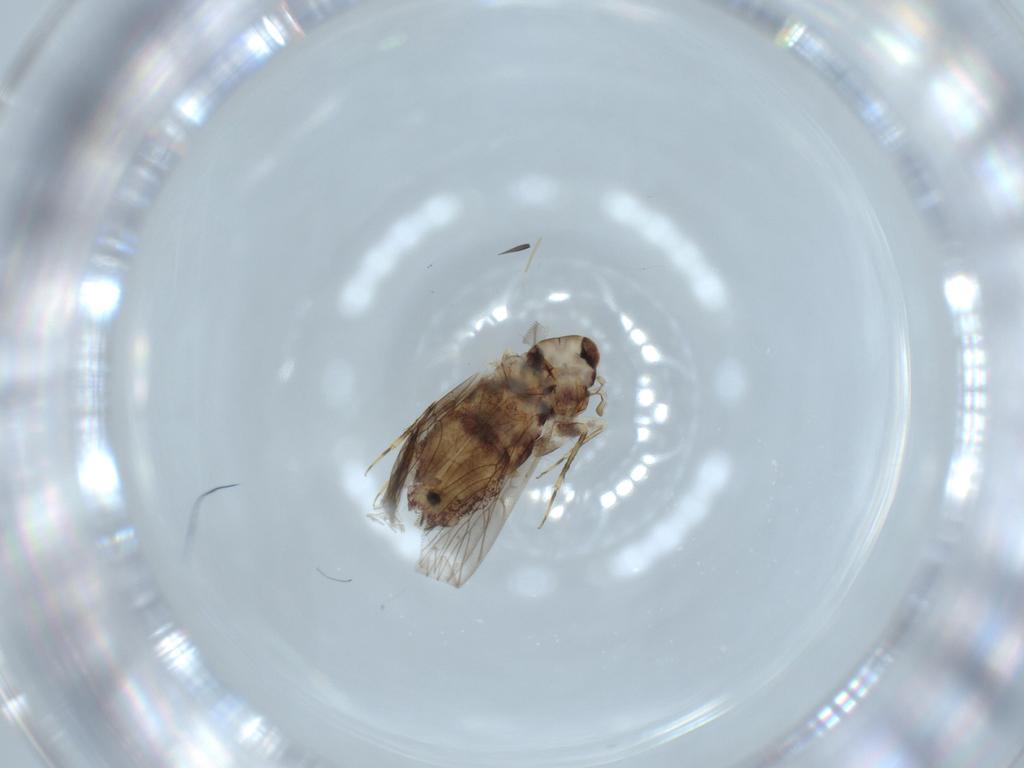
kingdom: Animalia
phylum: Arthropoda
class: Insecta
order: Psocodea
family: Lepidopsocidae
